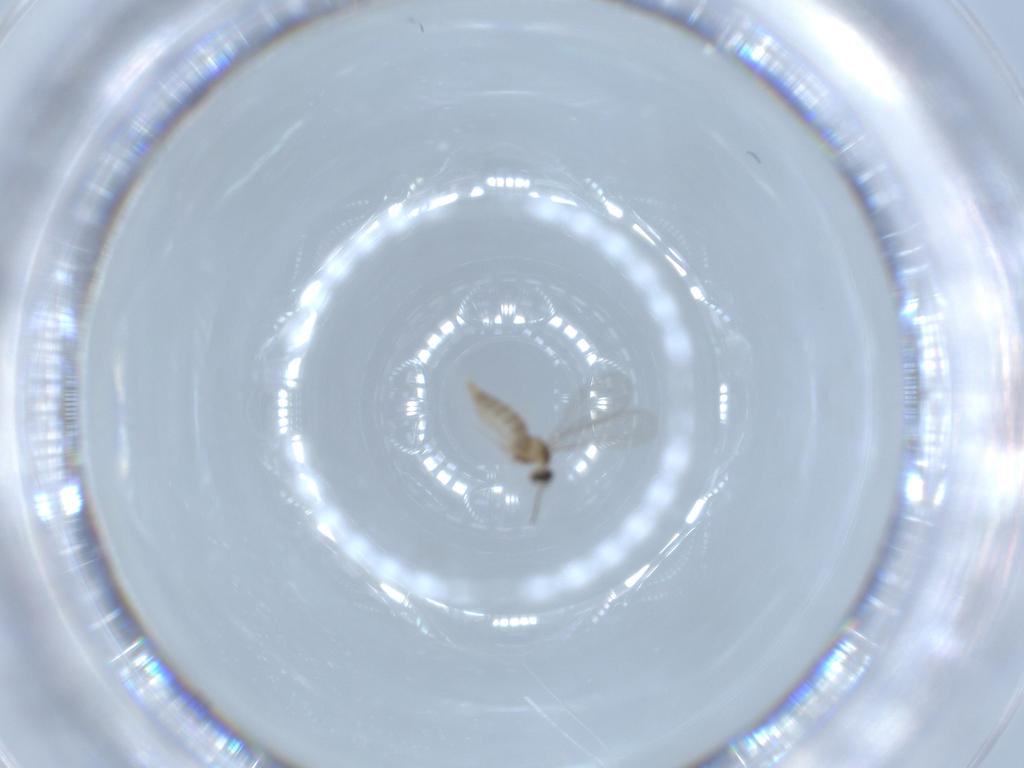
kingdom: Animalia
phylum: Arthropoda
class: Insecta
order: Diptera
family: Cecidomyiidae
